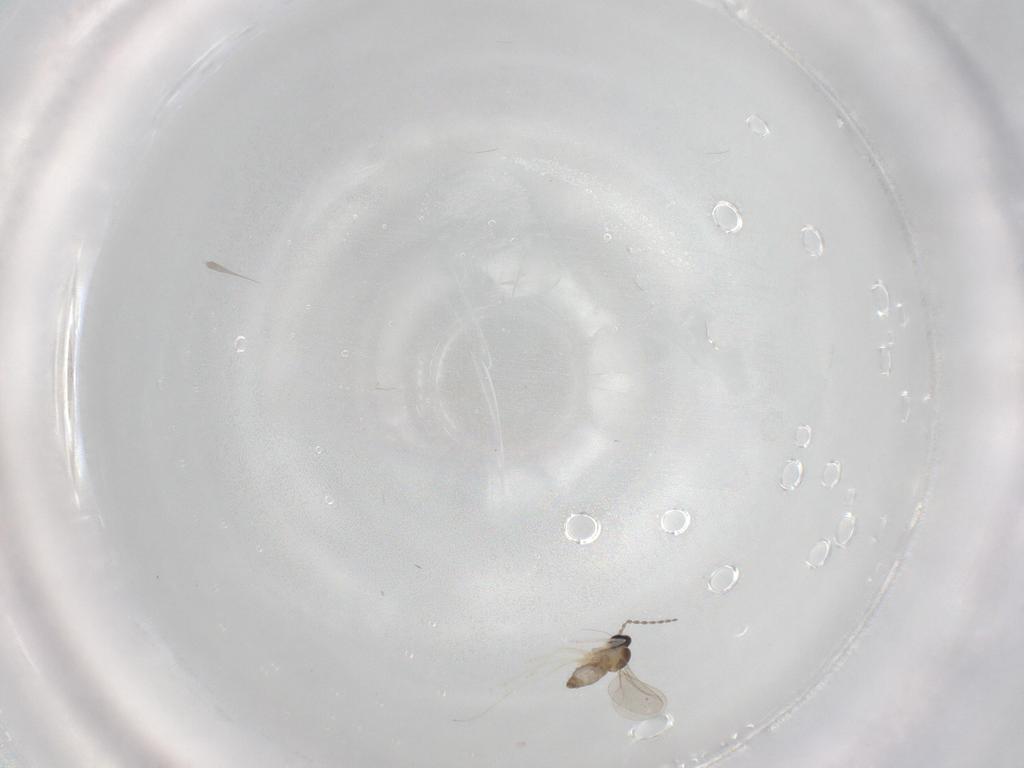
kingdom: Animalia
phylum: Arthropoda
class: Insecta
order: Diptera
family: Cecidomyiidae
